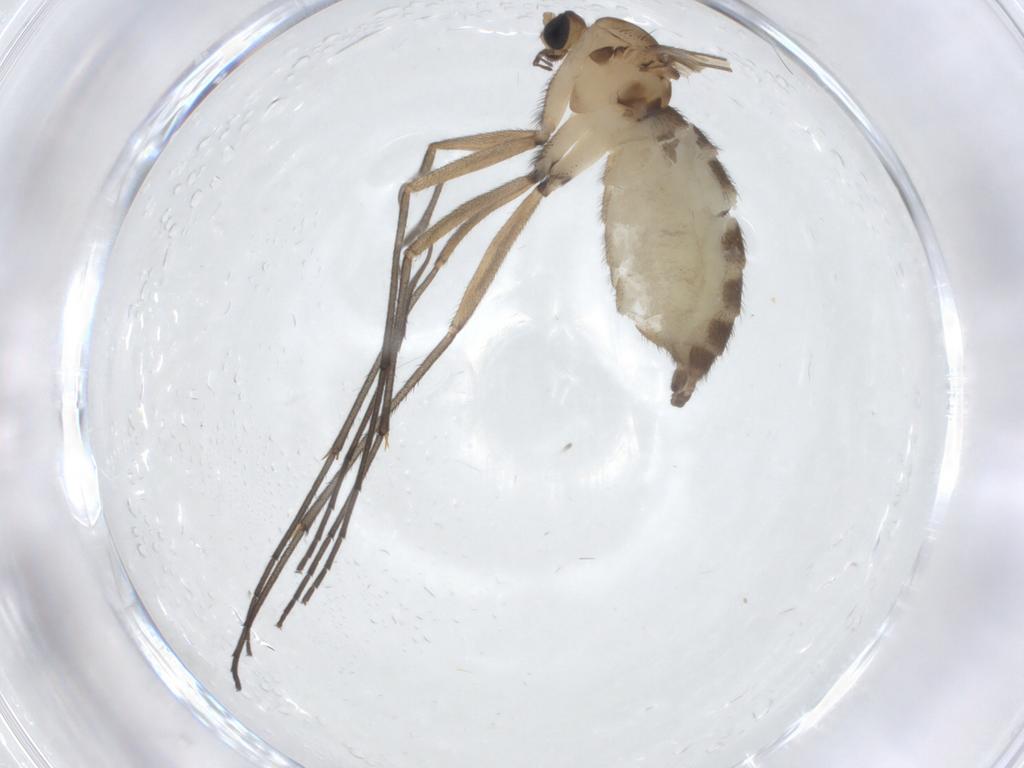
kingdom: Animalia
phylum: Arthropoda
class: Insecta
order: Diptera
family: Sciaridae
